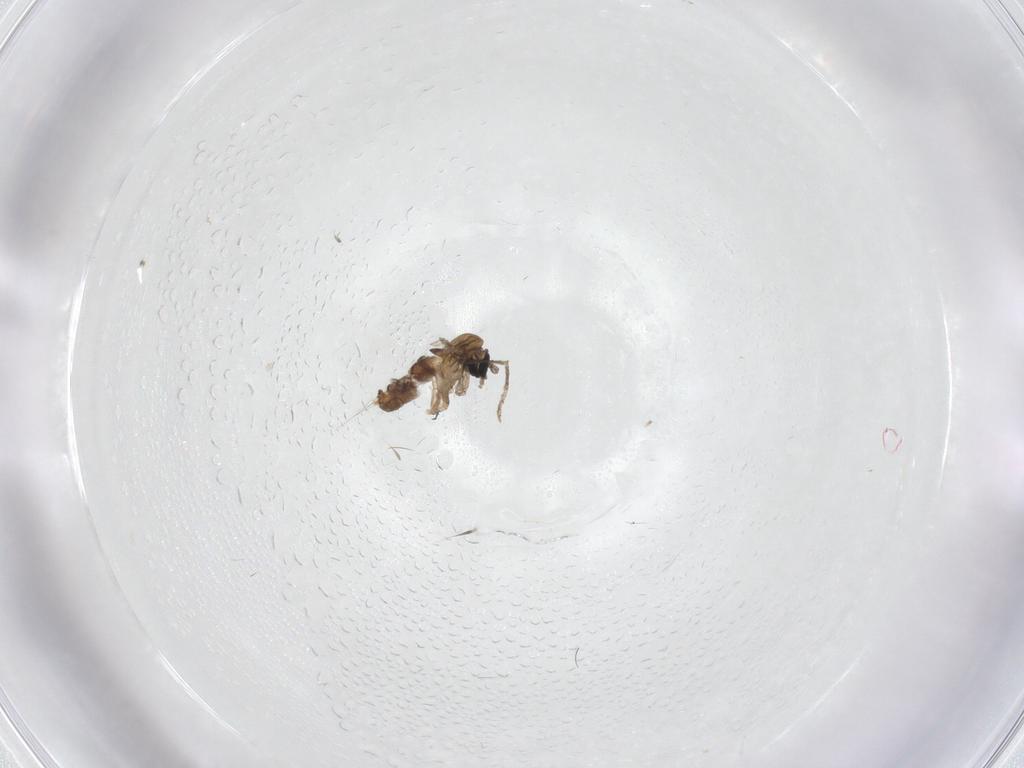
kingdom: Animalia
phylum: Arthropoda
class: Insecta
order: Diptera
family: Psychodidae
